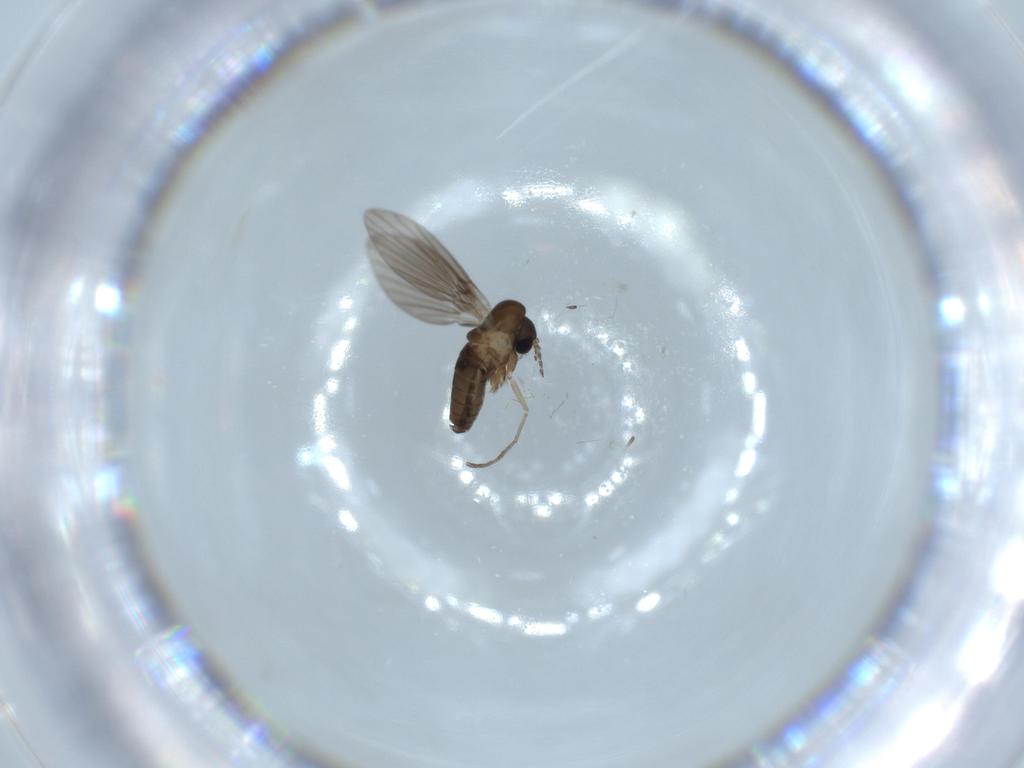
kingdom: Animalia
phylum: Arthropoda
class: Insecta
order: Diptera
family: Psychodidae
